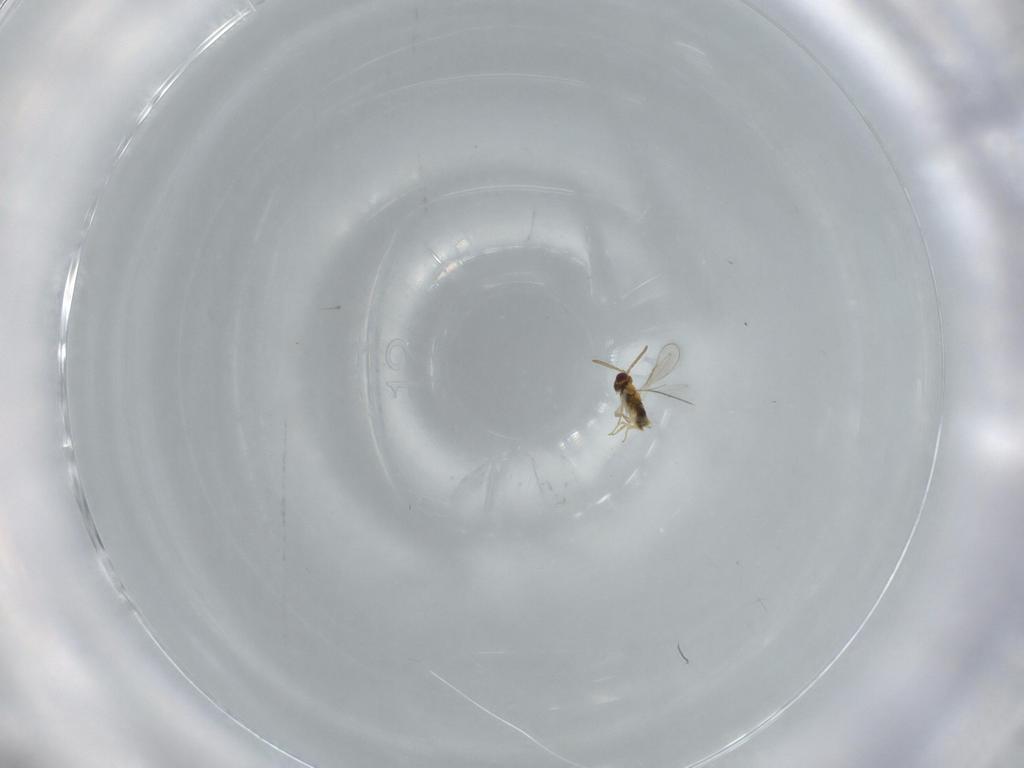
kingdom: Animalia
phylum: Arthropoda
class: Insecta
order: Hymenoptera
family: Aphelinidae
